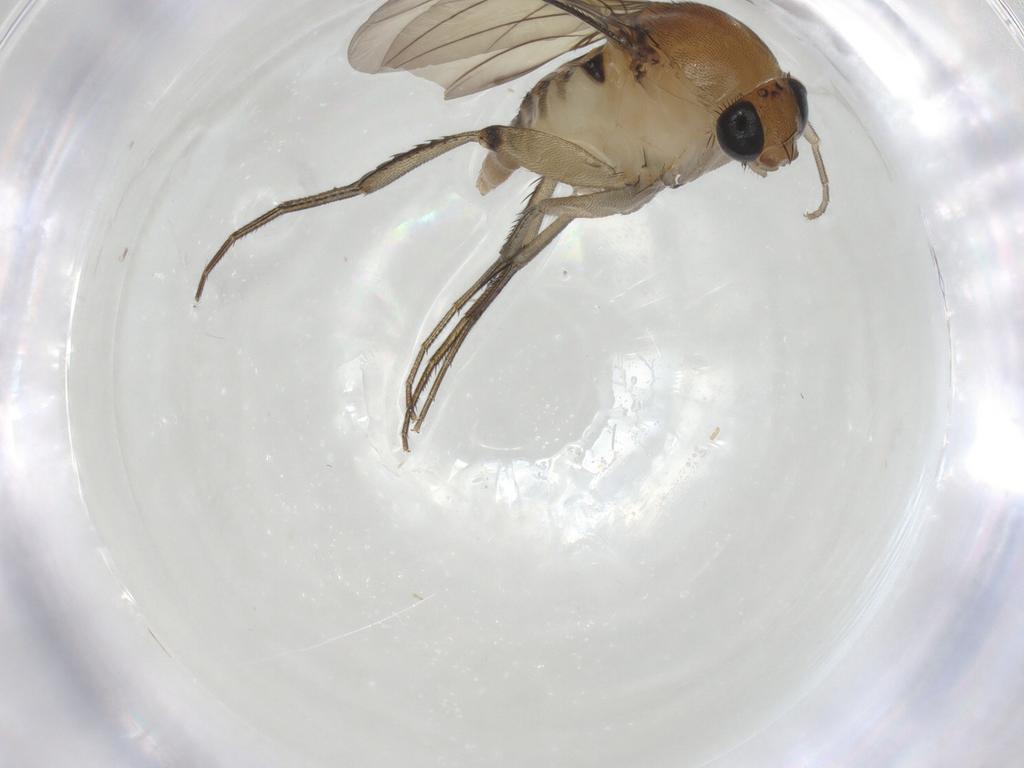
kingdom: Animalia
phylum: Arthropoda
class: Insecta
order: Diptera
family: Phoridae
